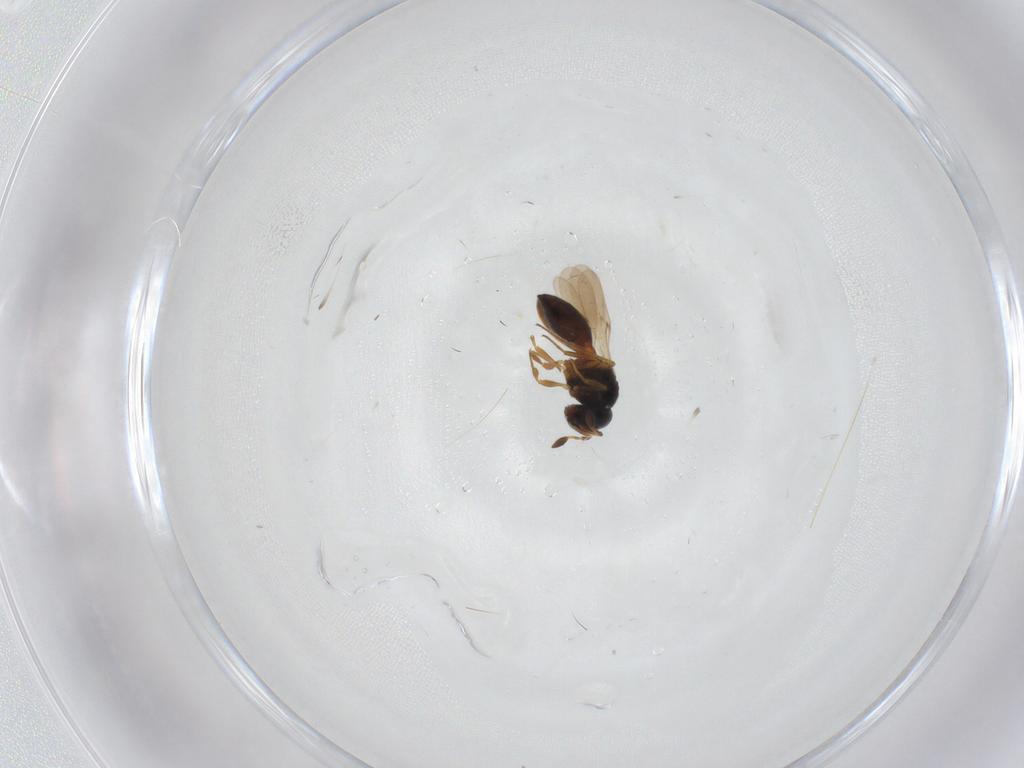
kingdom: Animalia
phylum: Arthropoda
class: Insecta
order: Hymenoptera
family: Scelionidae
